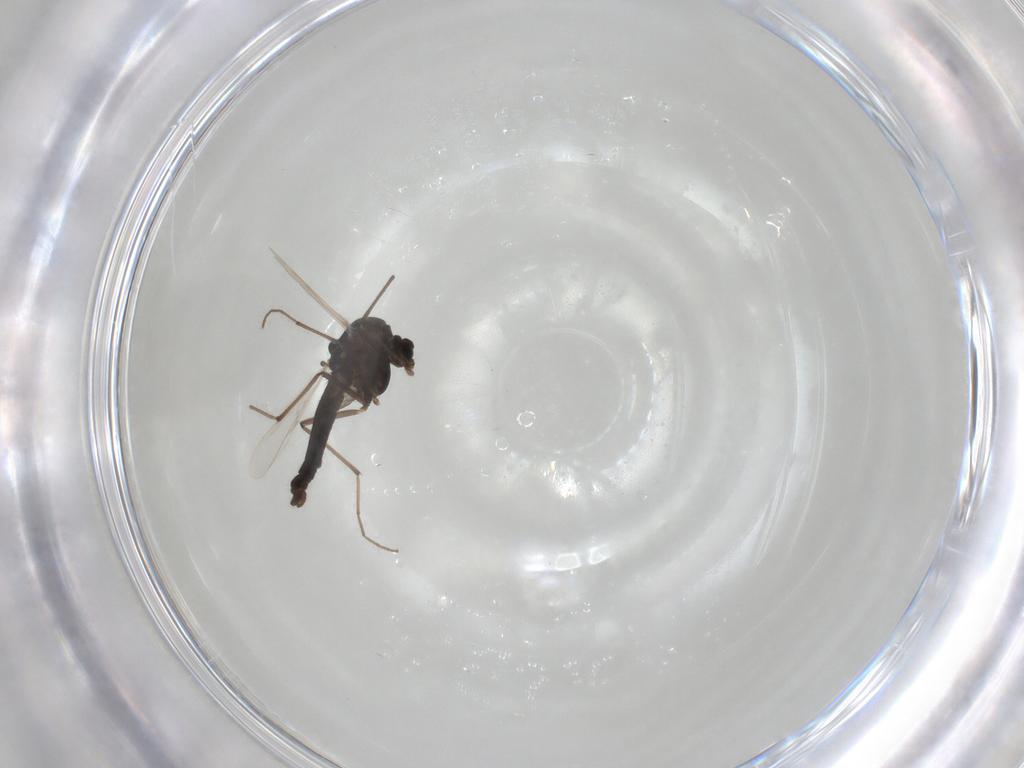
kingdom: Animalia
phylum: Arthropoda
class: Insecta
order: Diptera
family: Chironomidae
